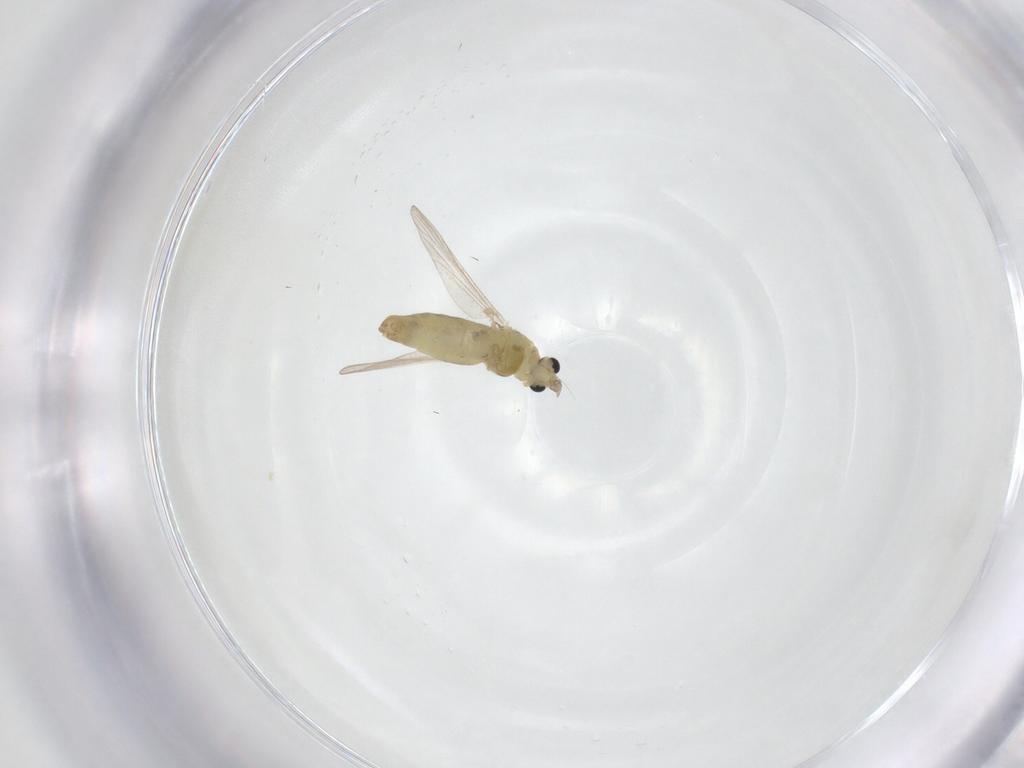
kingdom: Animalia
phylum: Arthropoda
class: Insecta
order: Diptera
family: Chironomidae
